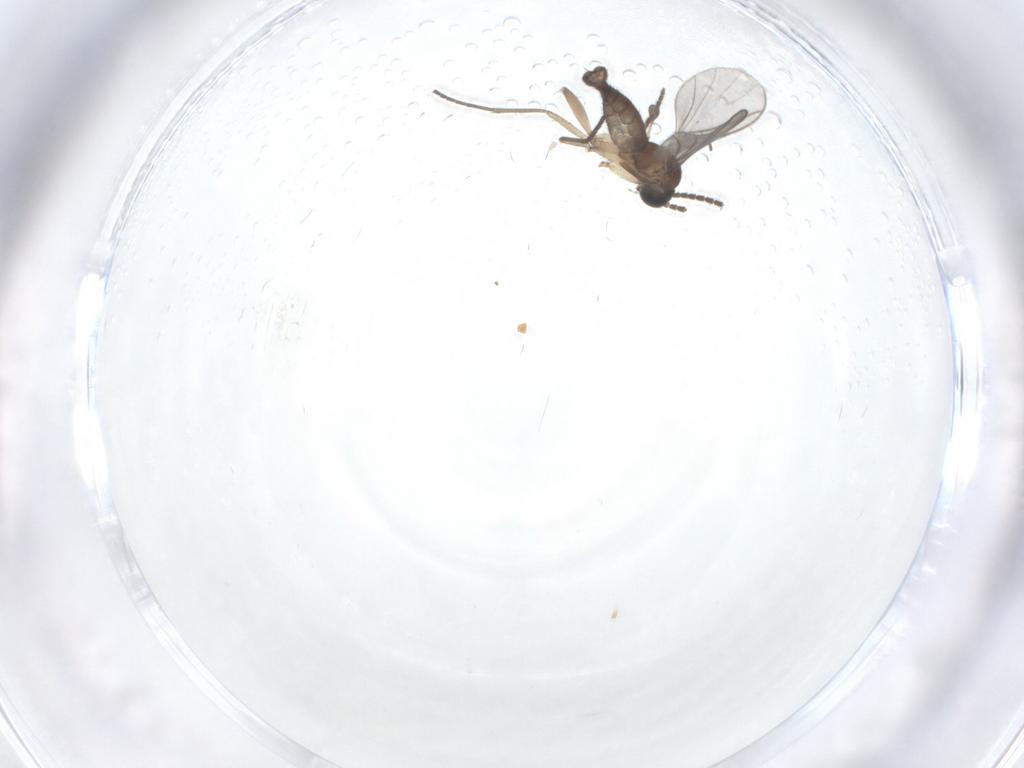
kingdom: Animalia
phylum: Arthropoda
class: Insecta
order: Diptera
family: Sciaridae
